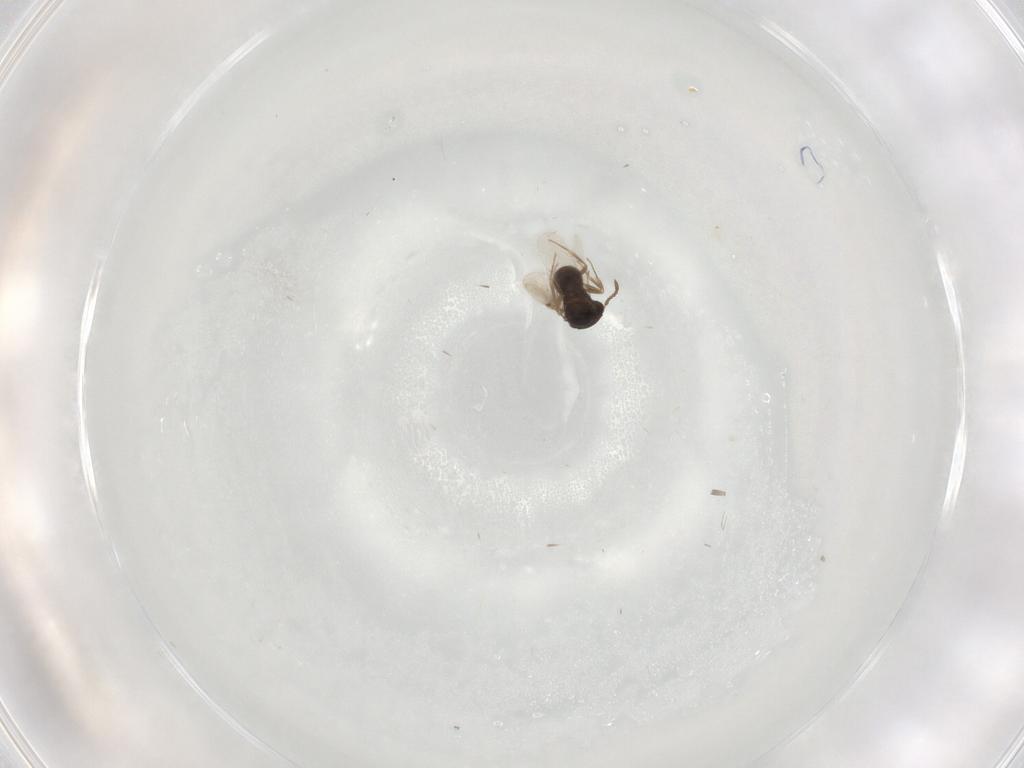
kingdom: Animalia
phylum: Arthropoda
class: Insecta
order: Hymenoptera
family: Scelionidae
